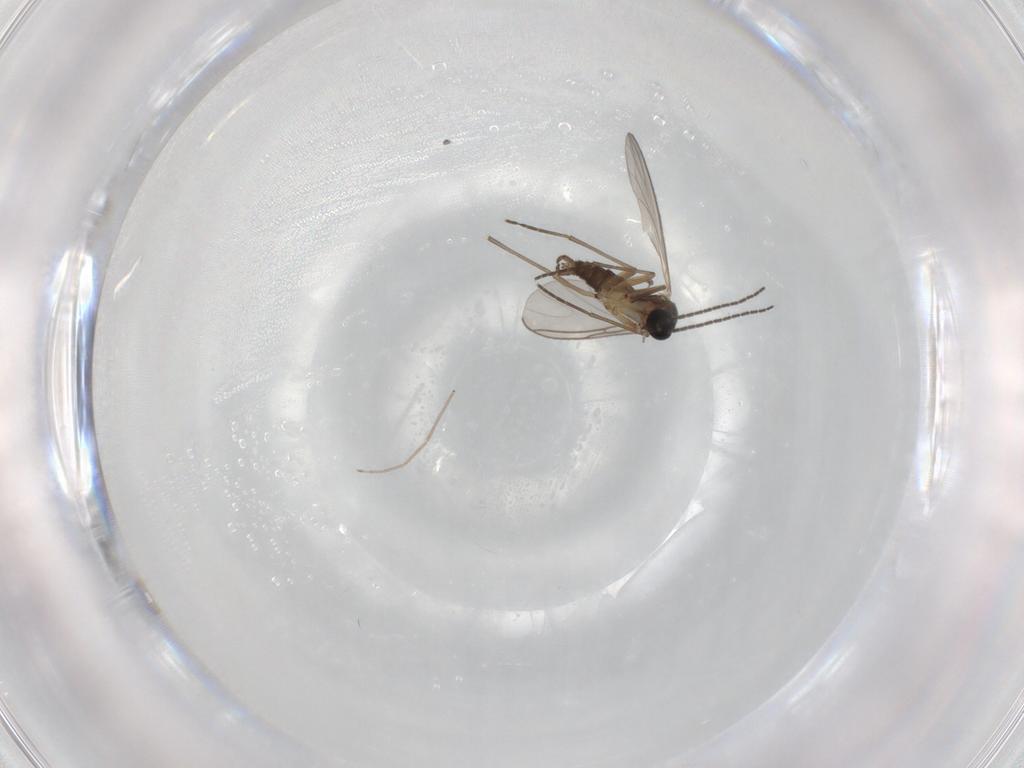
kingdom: Animalia
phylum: Arthropoda
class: Insecta
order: Diptera
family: Sciaridae
